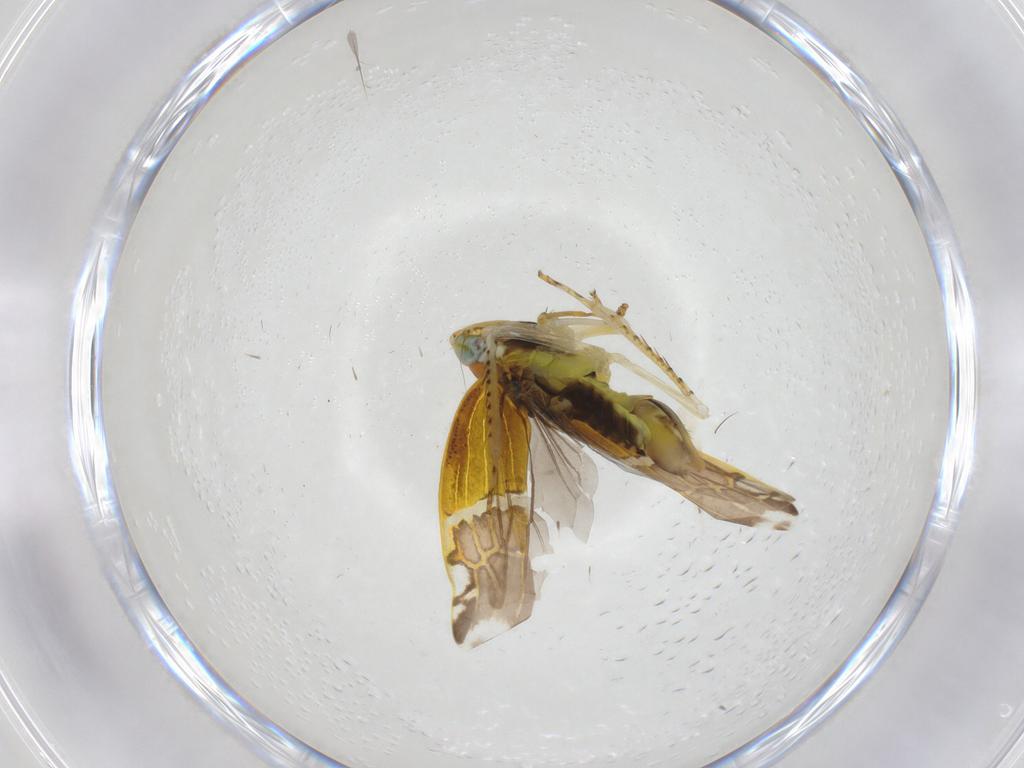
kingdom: Animalia
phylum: Arthropoda
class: Insecta
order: Hemiptera
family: Cicadellidae
